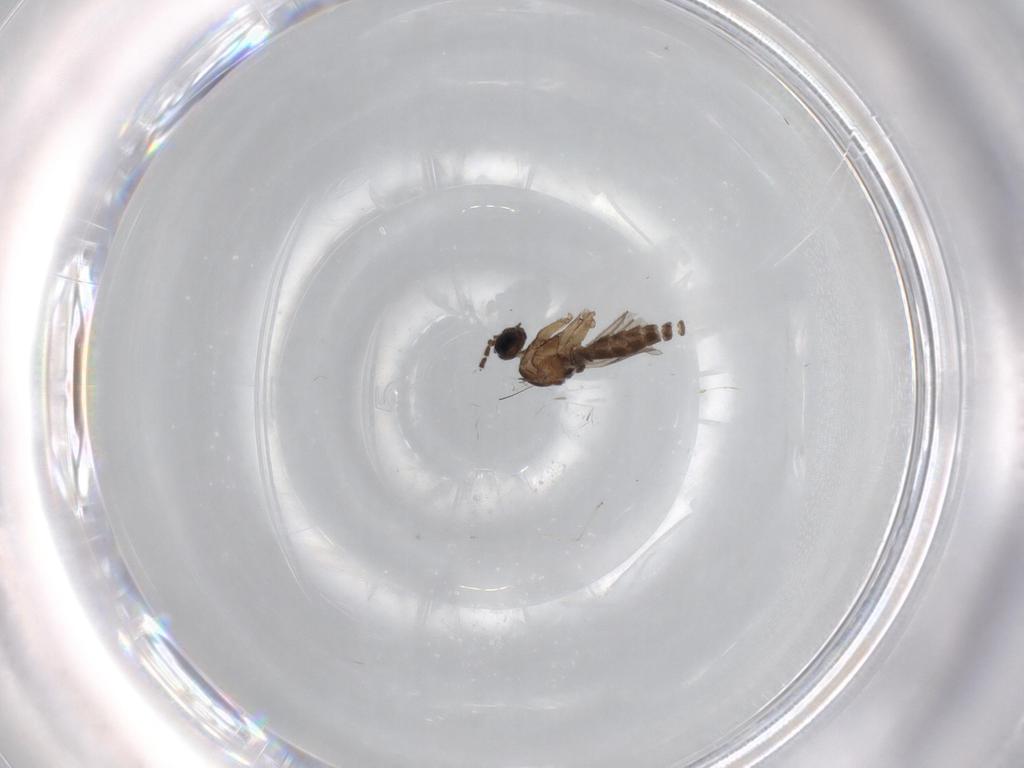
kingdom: Animalia
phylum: Arthropoda
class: Insecta
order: Diptera
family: Sciaridae
